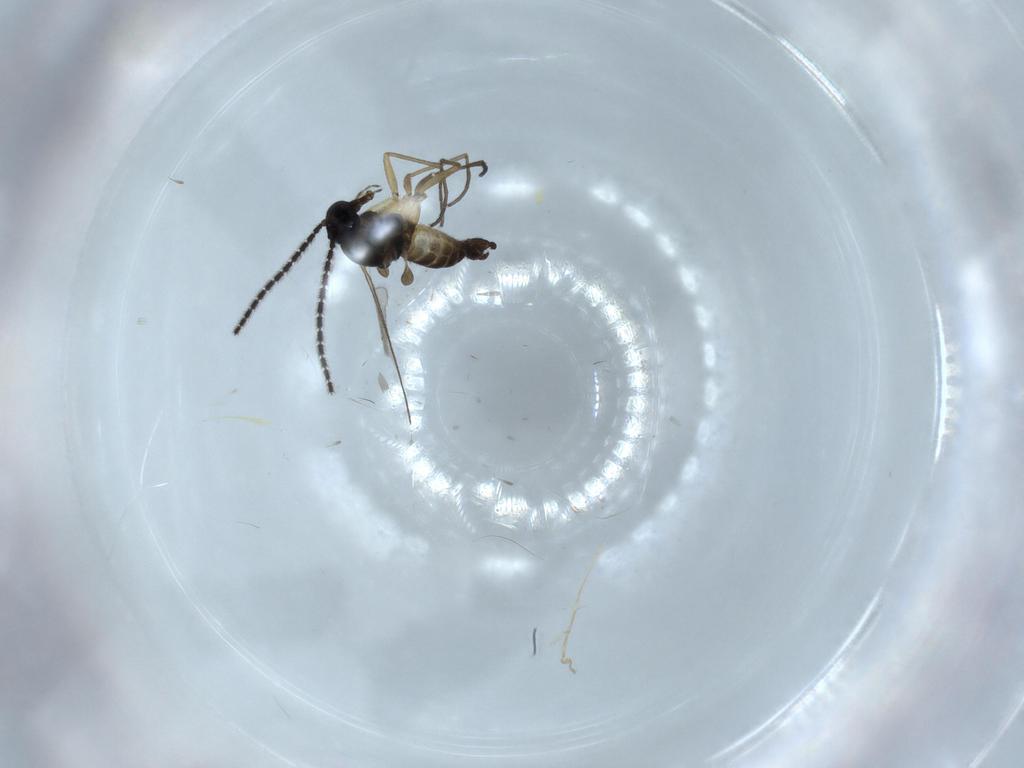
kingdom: Animalia
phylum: Arthropoda
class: Insecta
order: Diptera
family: Sciaridae
